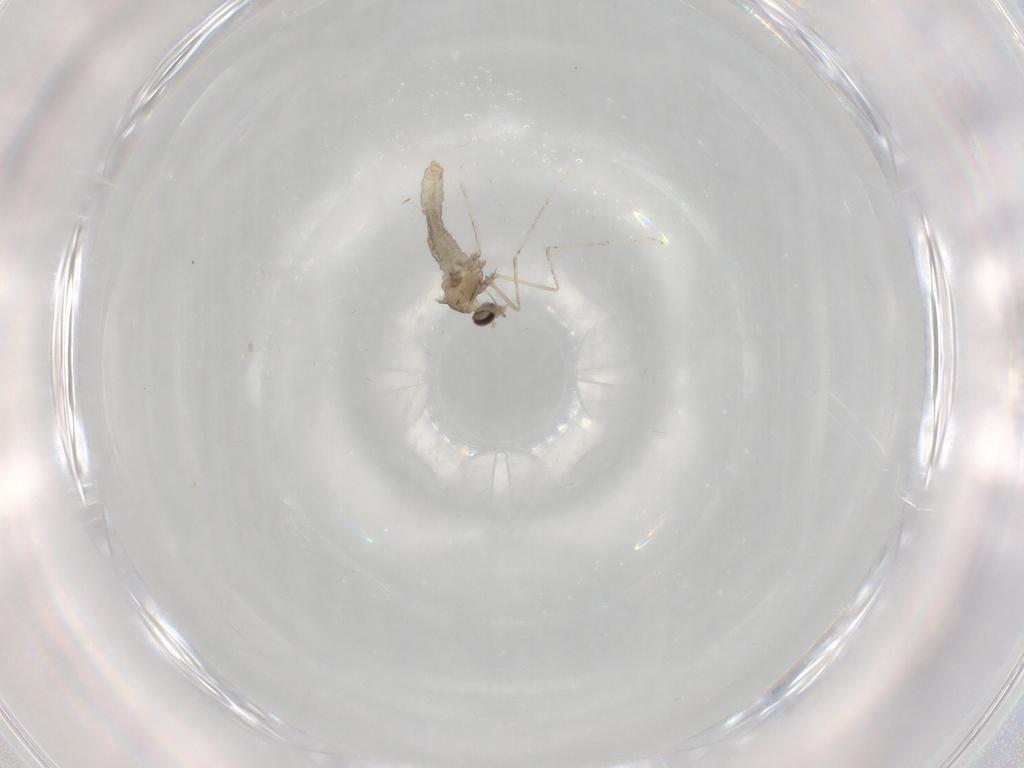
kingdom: Animalia
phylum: Arthropoda
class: Insecta
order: Diptera
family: Cecidomyiidae
